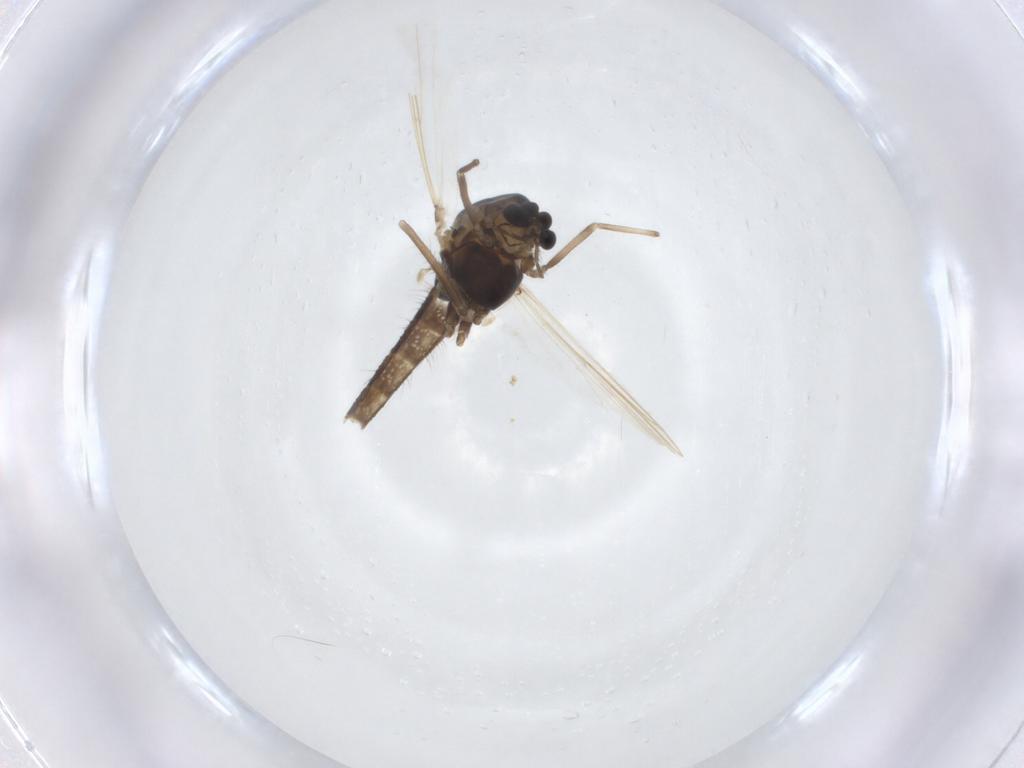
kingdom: Animalia
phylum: Arthropoda
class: Insecta
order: Diptera
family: Chironomidae
